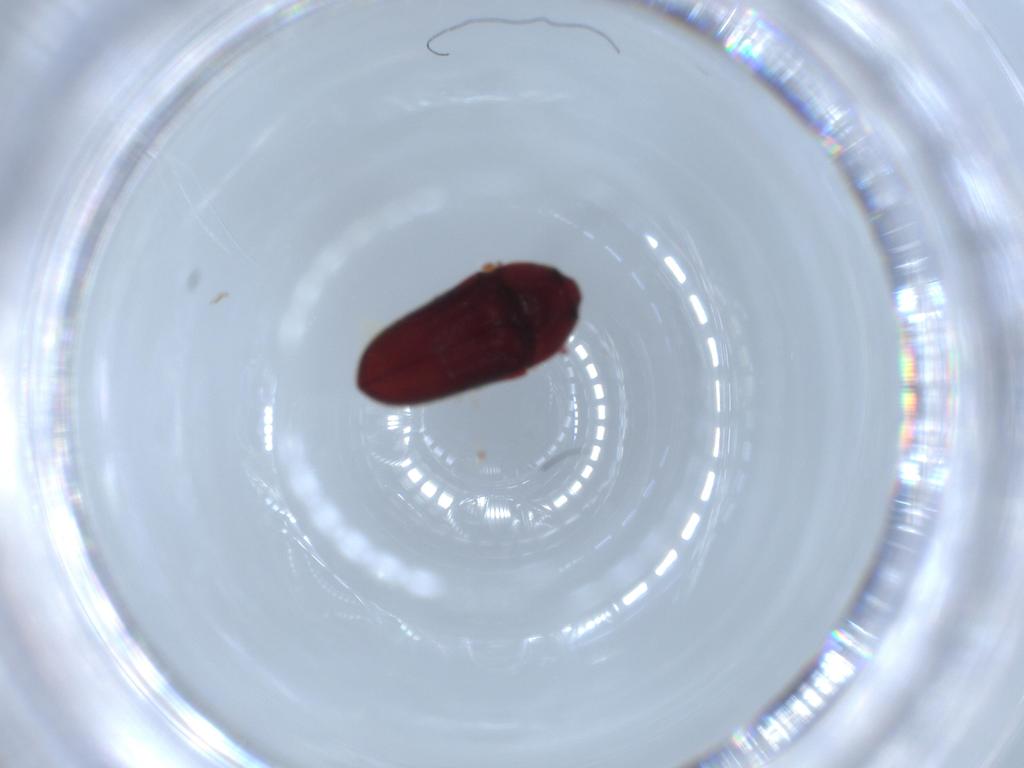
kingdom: Animalia
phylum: Arthropoda
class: Insecta
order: Coleoptera
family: Throscidae
